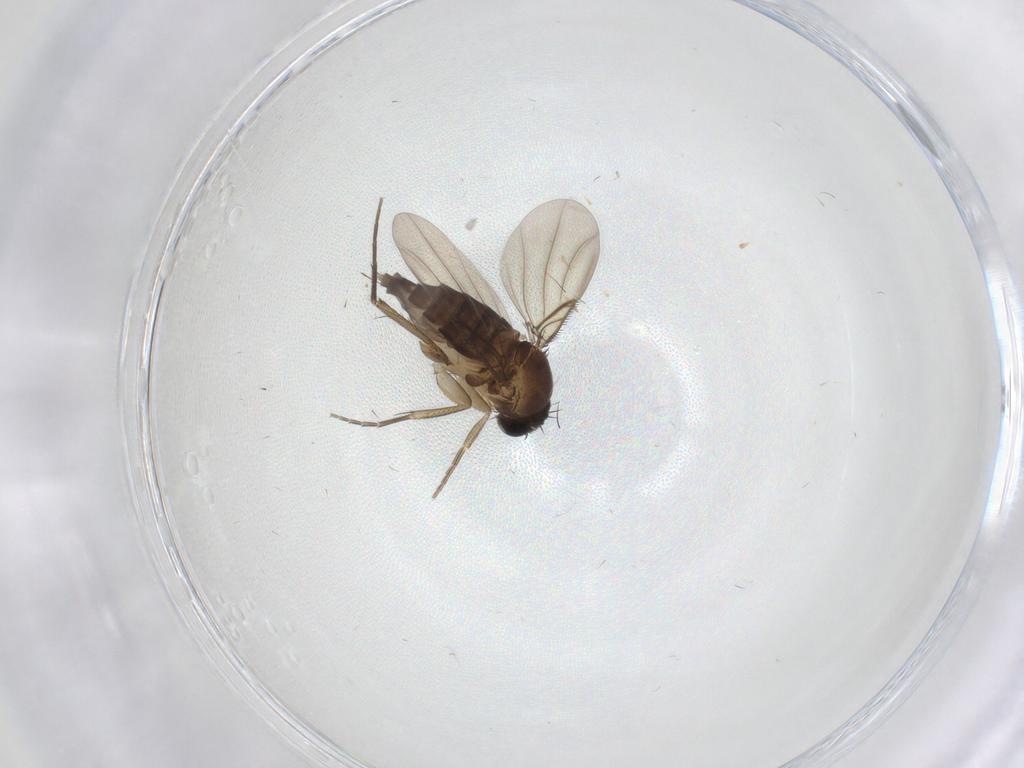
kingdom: Animalia
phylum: Arthropoda
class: Insecta
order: Diptera
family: Phoridae
